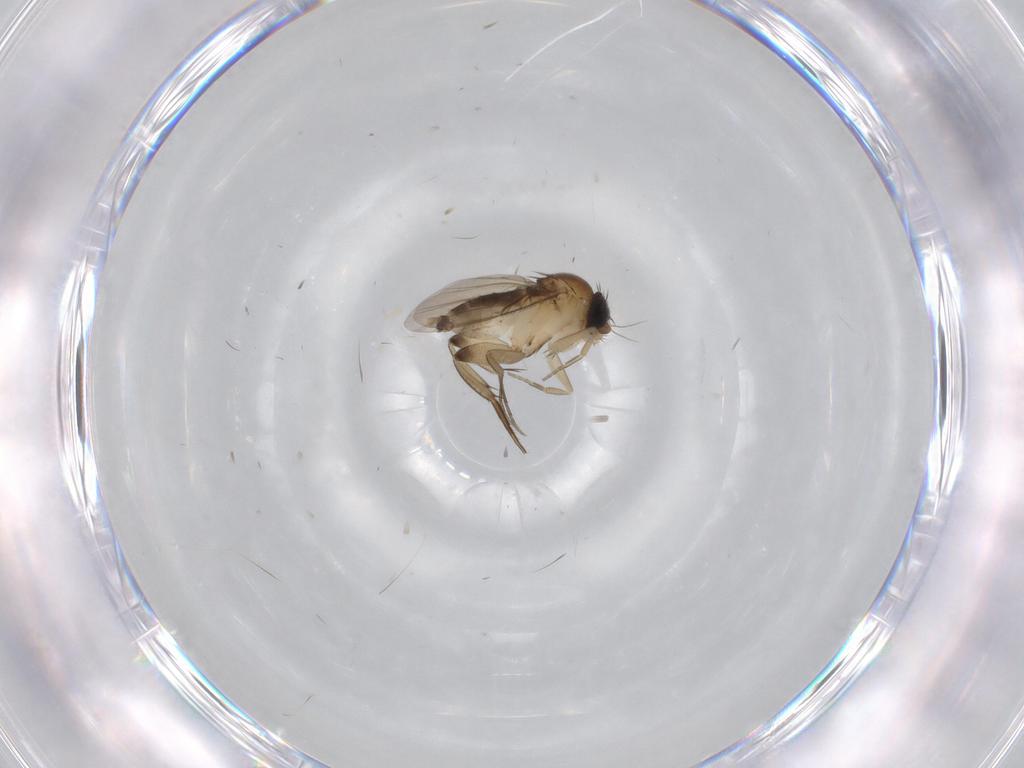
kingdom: Animalia
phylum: Arthropoda
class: Insecta
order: Diptera
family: Phoridae
